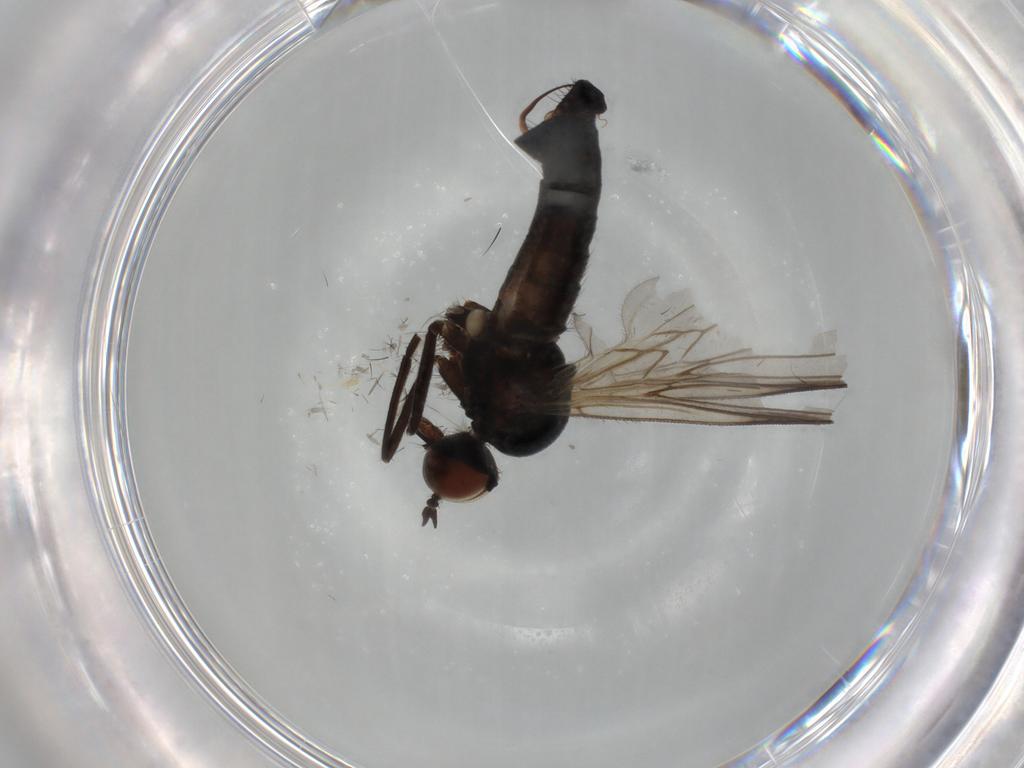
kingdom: Animalia
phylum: Arthropoda
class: Insecta
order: Diptera
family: Empididae
